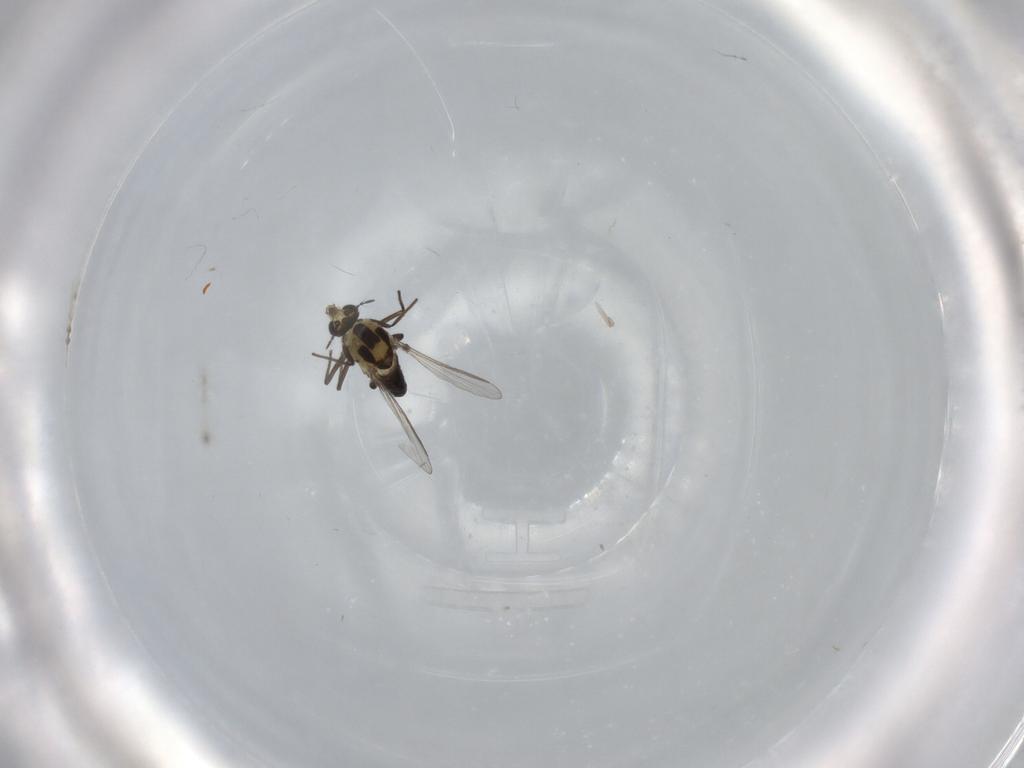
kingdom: Animalia
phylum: Arthropoda
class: Insecta
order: Diptera
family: Chironomidae
